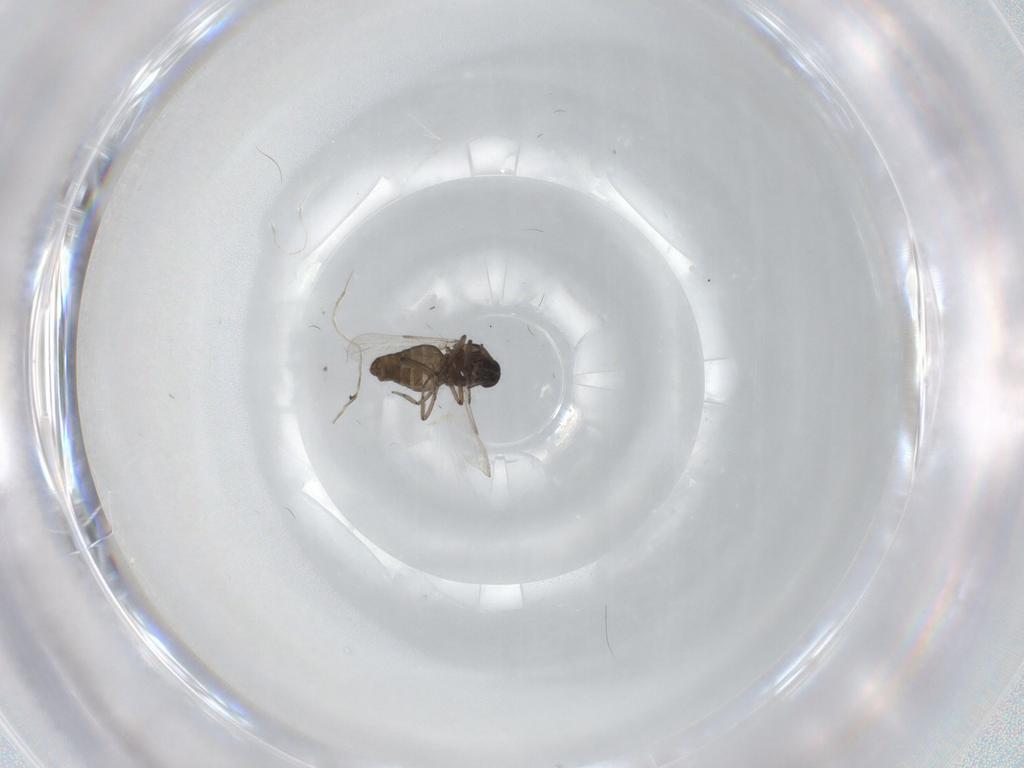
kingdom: Animalia
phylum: Arthropoda
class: Insecta
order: Diptera
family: Ceratopogonidae
